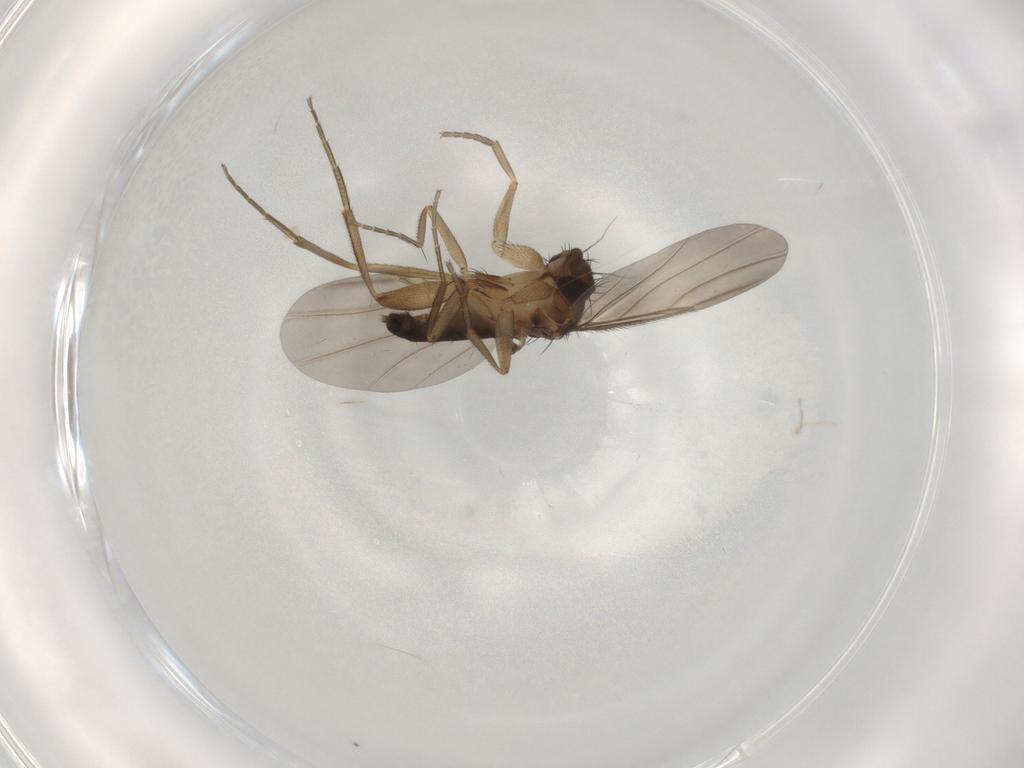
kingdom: Animalia
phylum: Arthropoda
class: Insecta
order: Diptera
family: Phoridae
